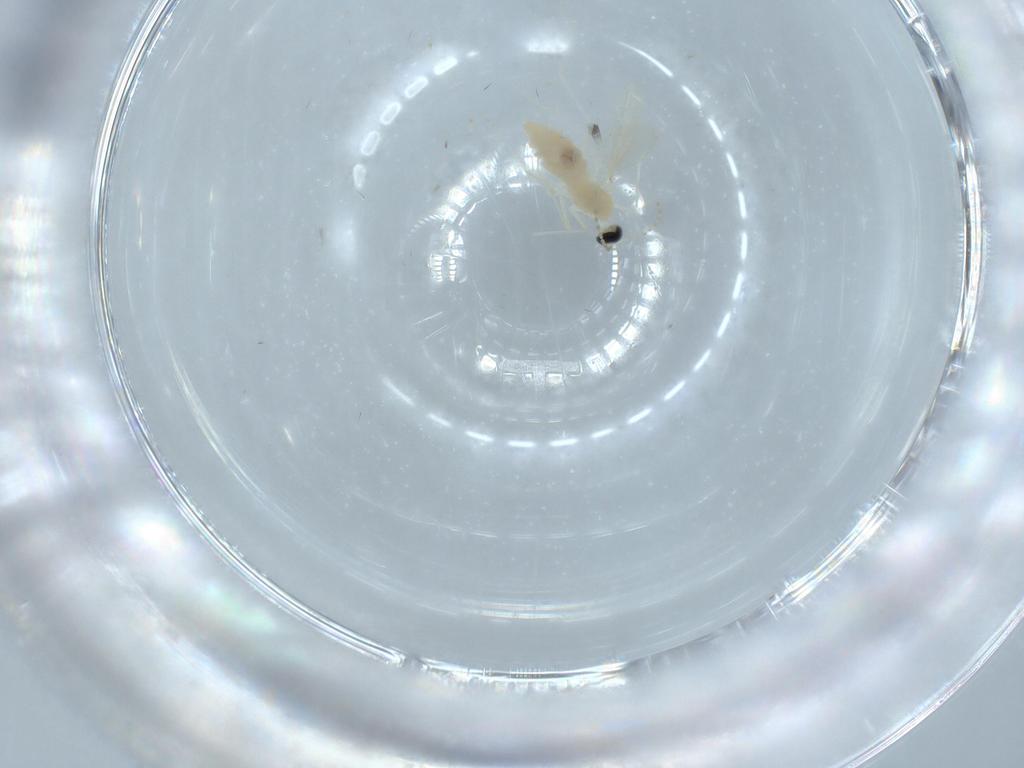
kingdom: Animalia
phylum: Arthropoda
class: Insecta
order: Diptera
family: Cecidomyiidae
